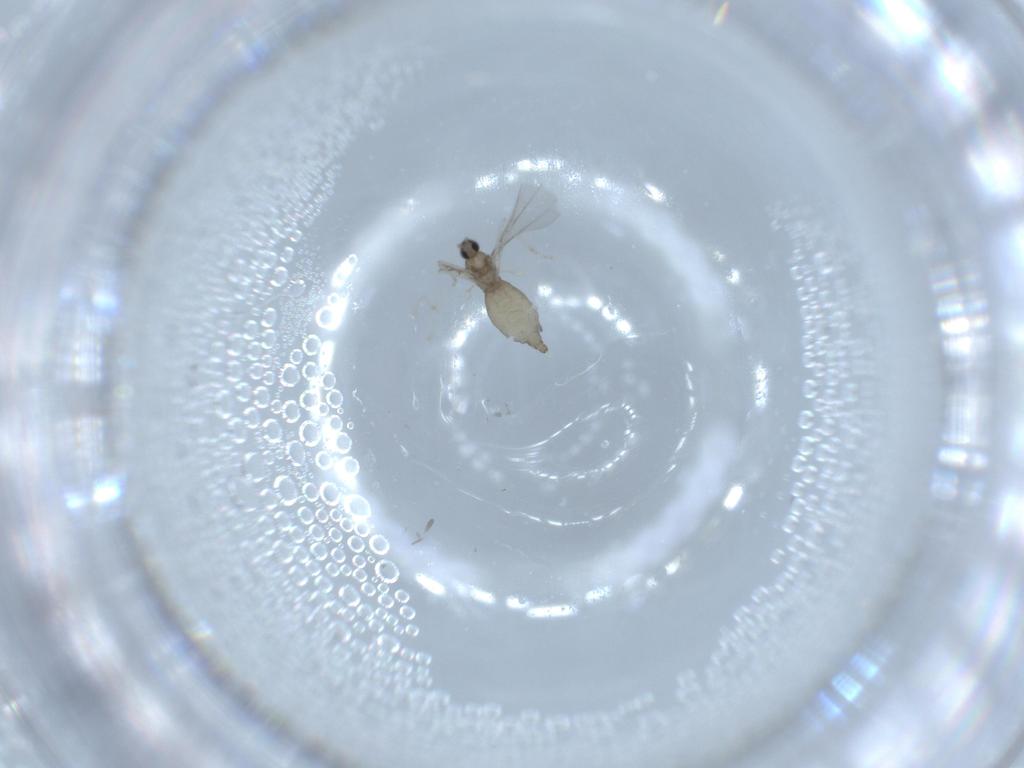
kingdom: Animalia
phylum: Arthropoda
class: Insecta
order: Diptera
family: Cecidomyiidae
